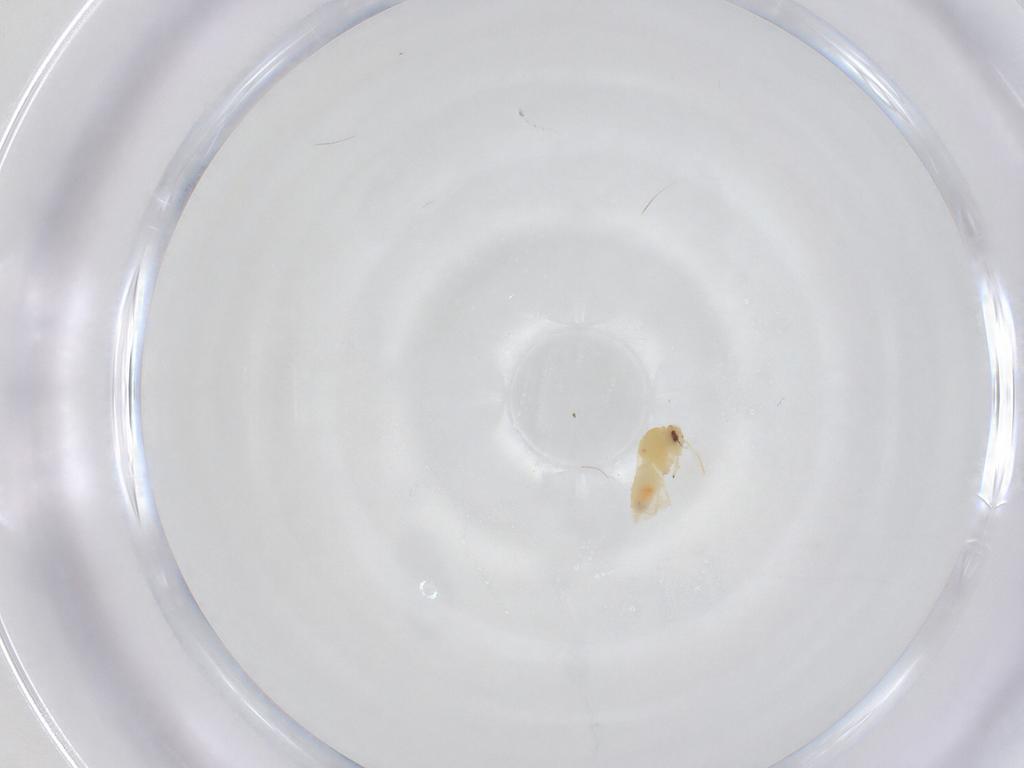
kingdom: Animalia
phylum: Arthropoda
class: Insecta
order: Hemiptera
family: Aleyrodidae
